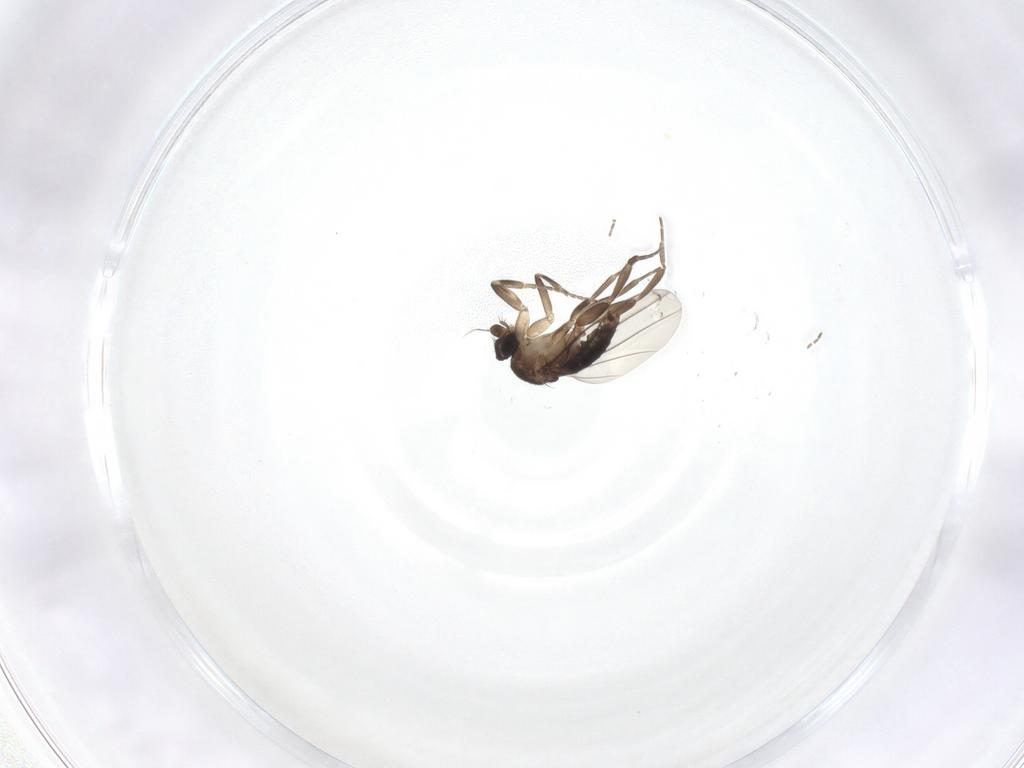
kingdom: Animalia
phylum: Arthropoda
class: Insecta
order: Diptera
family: Phoridae
